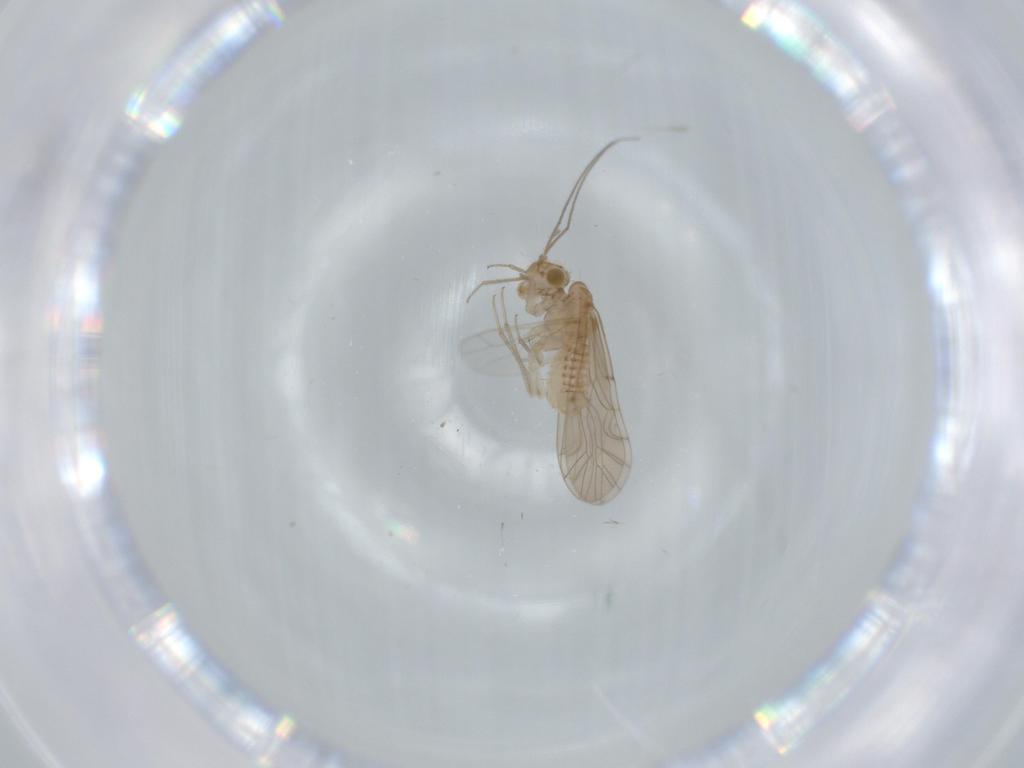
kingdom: Animalia
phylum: Arthropoda
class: Insecta
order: Psocodea
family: Lachesillidae
